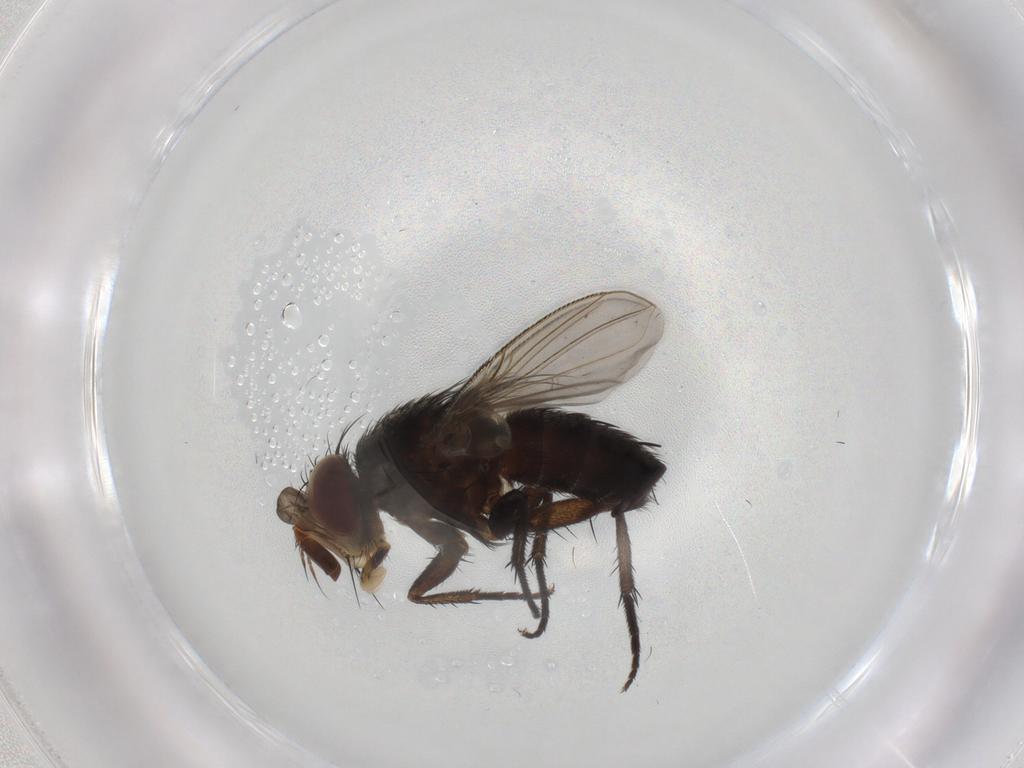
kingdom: Animalia
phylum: Arthropoda
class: Insecta
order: Diptera
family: Tachinidae
